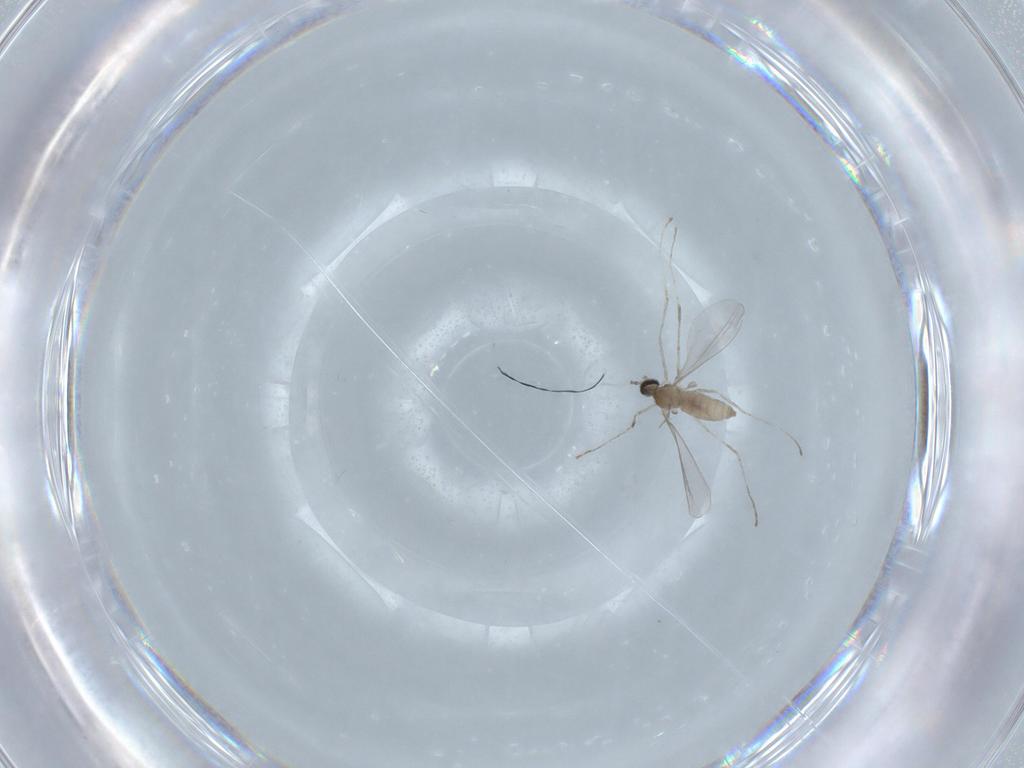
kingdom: Animalia
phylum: Arthropoda
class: Insecta
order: Diptera
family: Cecidomyiidae
